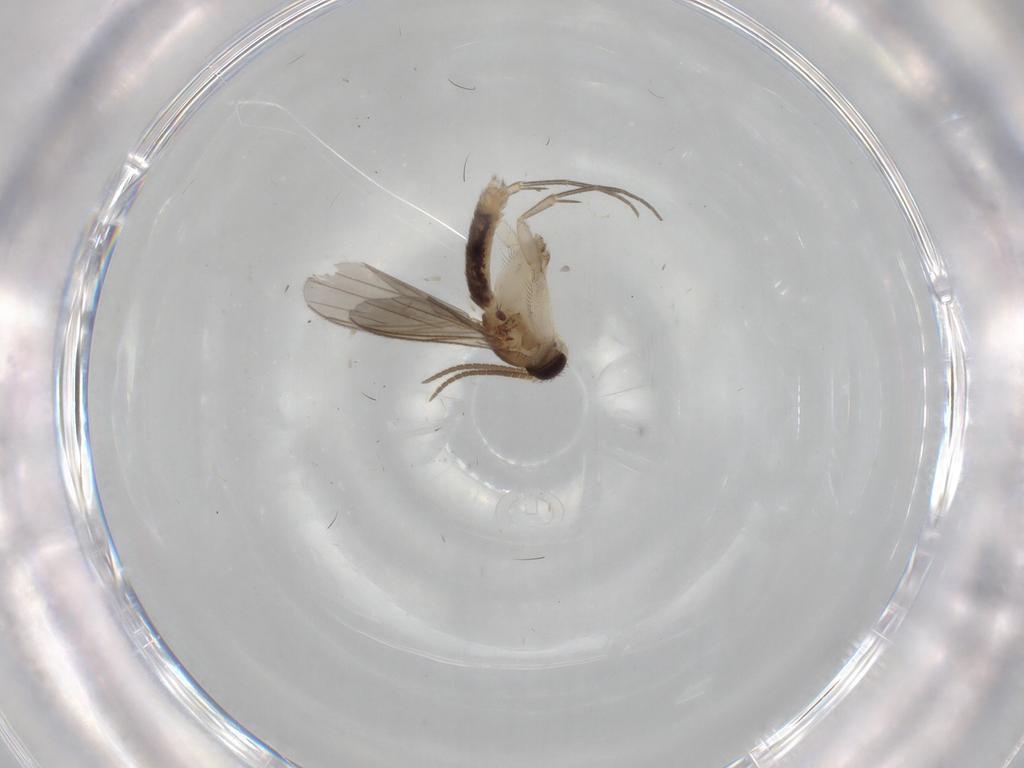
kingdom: Animalia
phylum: Arthropoda
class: Insecta
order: Diptera
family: Mycetophilidae
